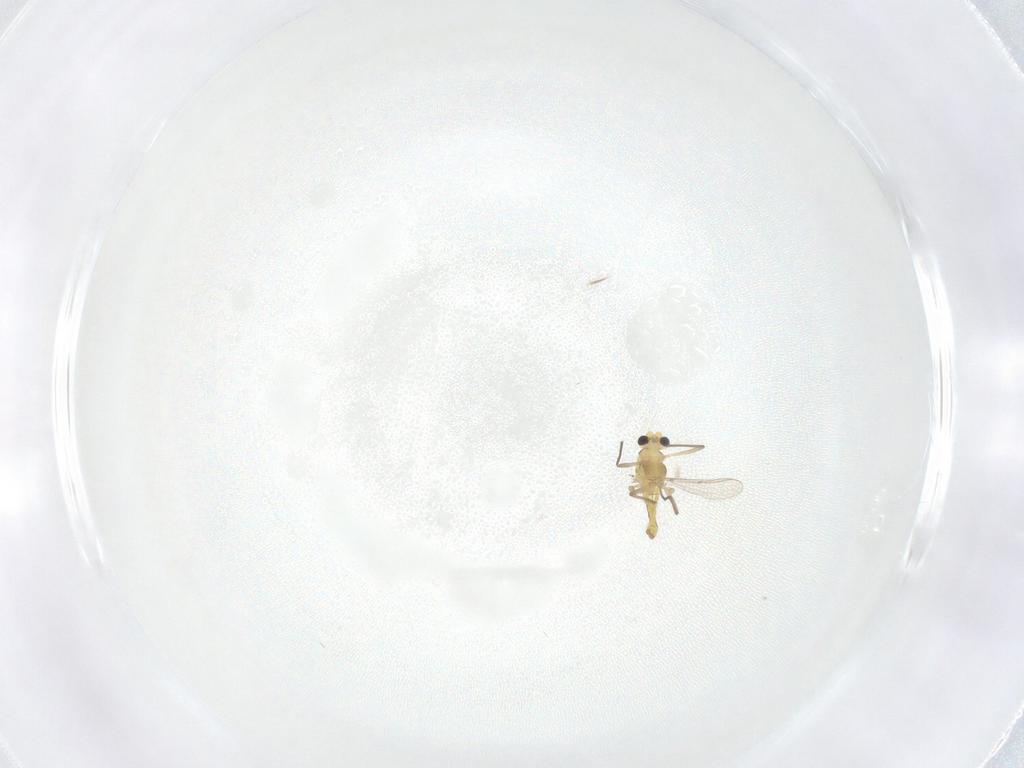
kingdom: Animalia
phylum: Arthropoda
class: Insecta
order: Diptera
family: Chironomidae
